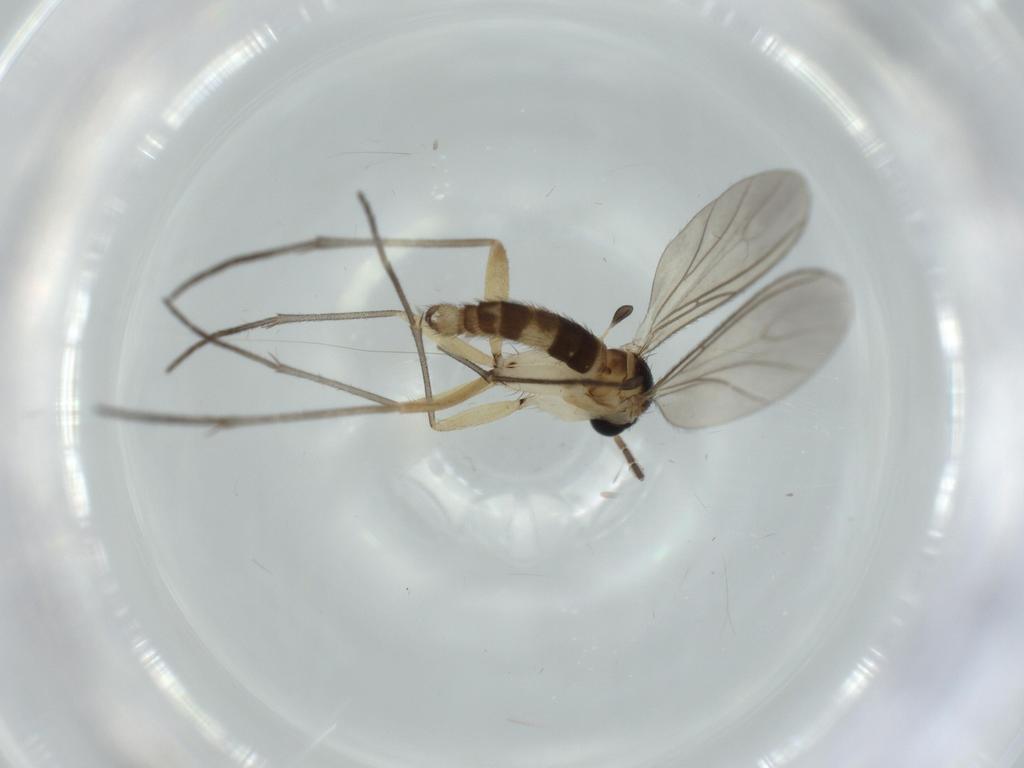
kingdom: Animalia
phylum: Arthropoda
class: Insecta
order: Diptera
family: Sciaridae
